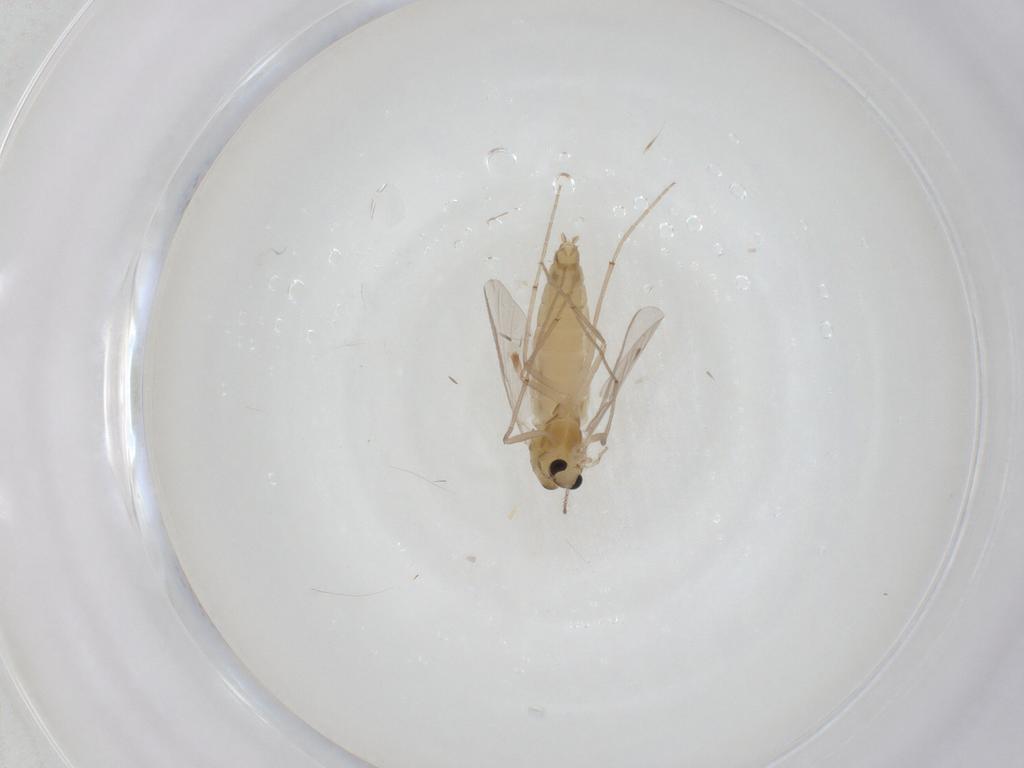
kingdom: Animalia
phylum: Arthropoda
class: Insecta
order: Diptera
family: Chironomidae
